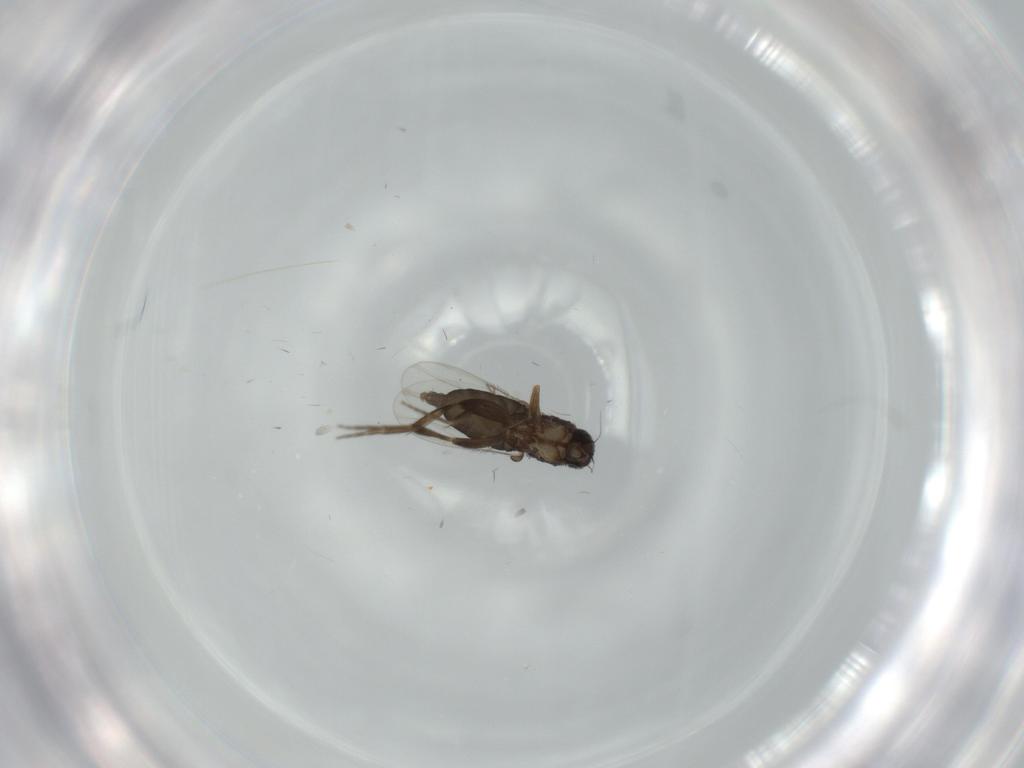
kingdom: Animalia
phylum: Arthropoda
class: Insecta
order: Diptera
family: Phoridae
